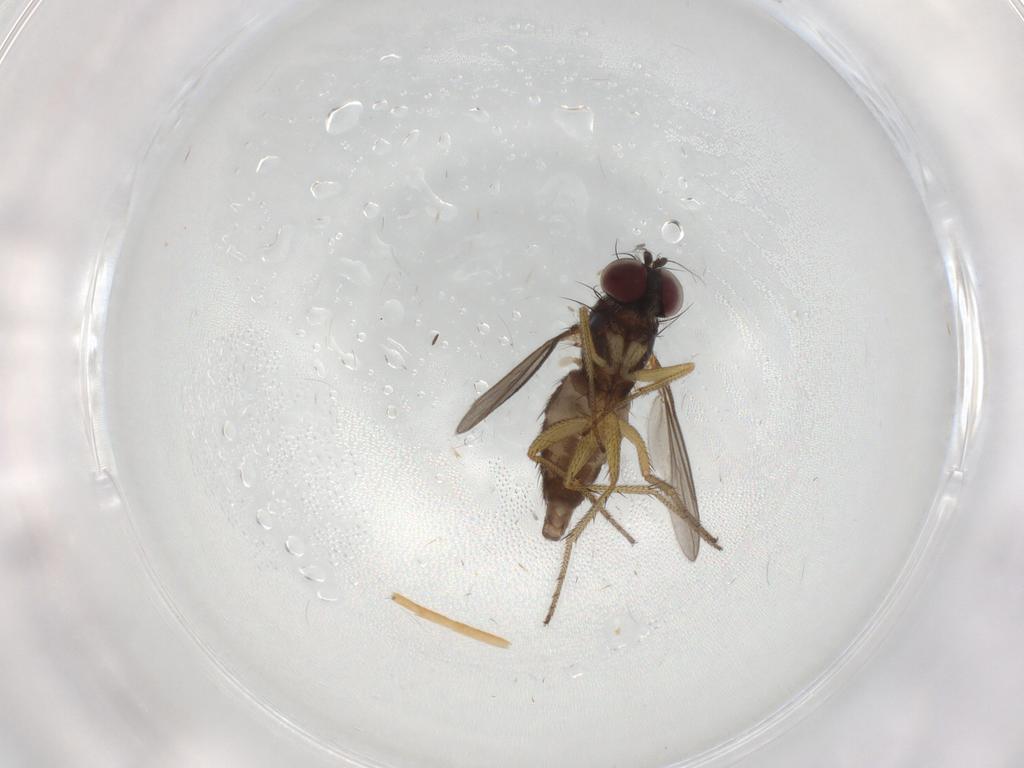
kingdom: Animalia
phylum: Arthropoda
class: Insecta
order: Diptera
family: Dolichopodidae
